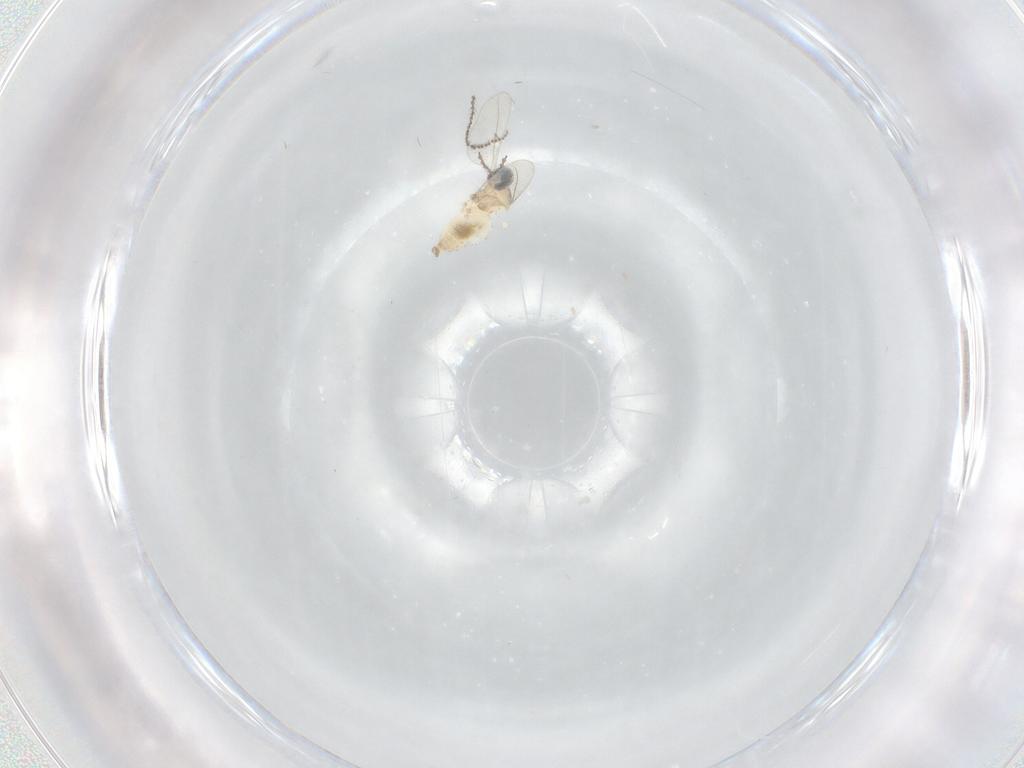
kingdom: Animalia
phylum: Arthropoda
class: Insecta
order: Diptera
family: Cecidomyiidae
